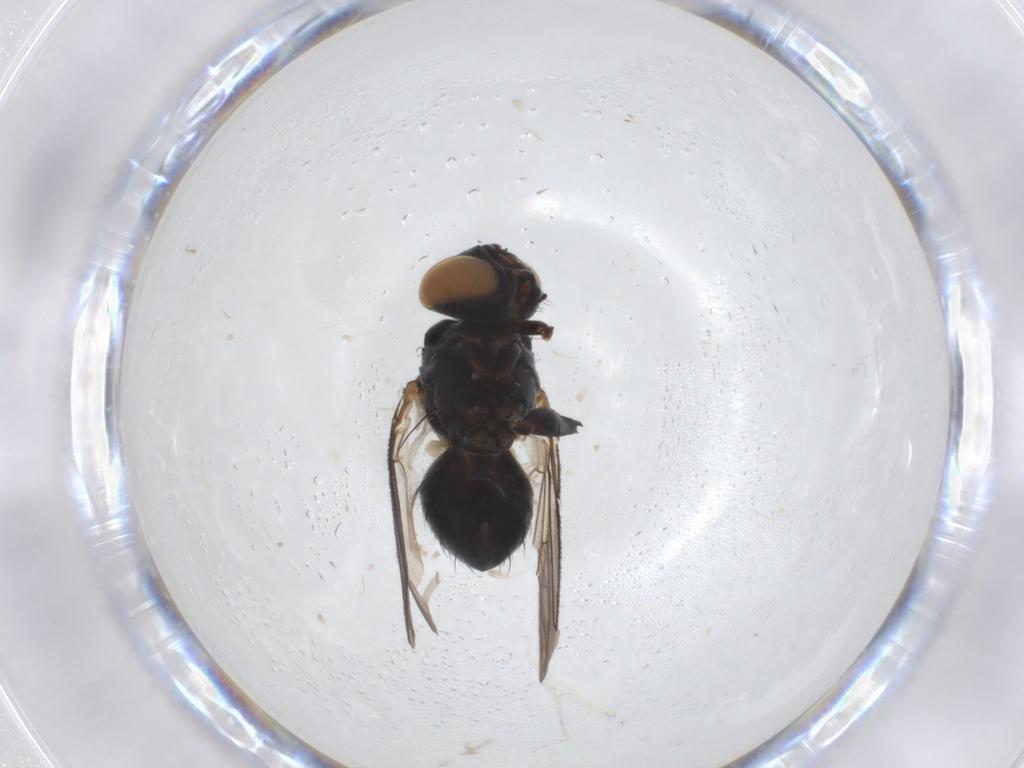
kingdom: Animalia
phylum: Arthropoda
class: Insecta
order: Diptera
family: Muscidae
